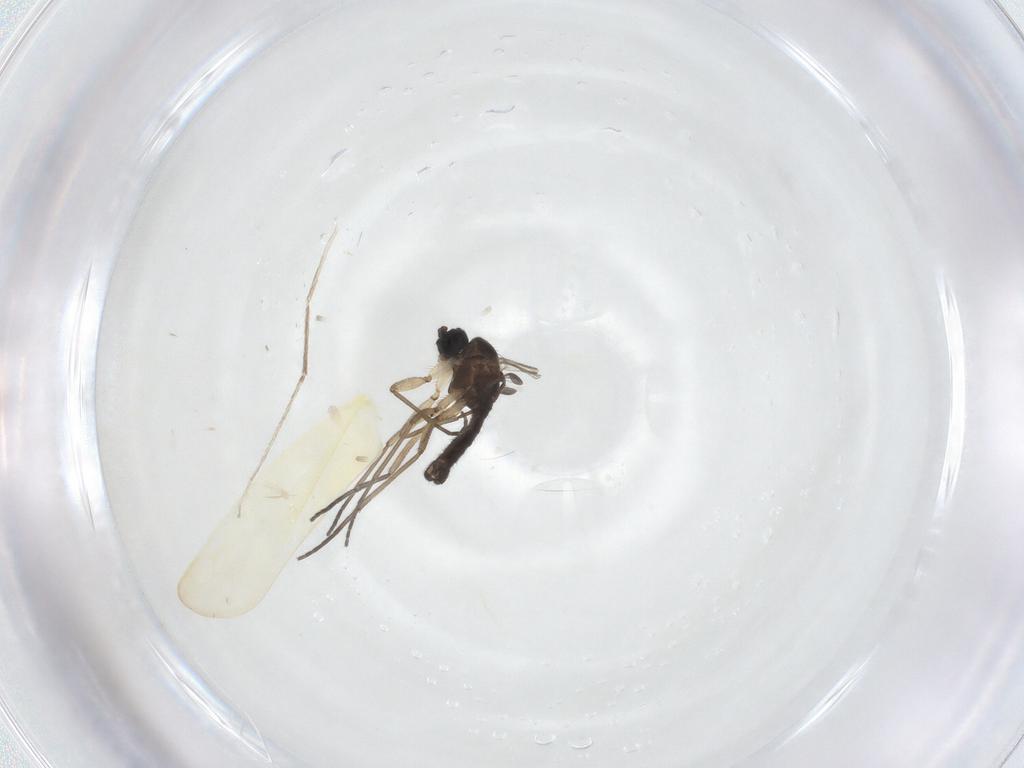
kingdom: Animalia
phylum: Arthropoda
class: Insecta
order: Diptera
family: Sciaridae
